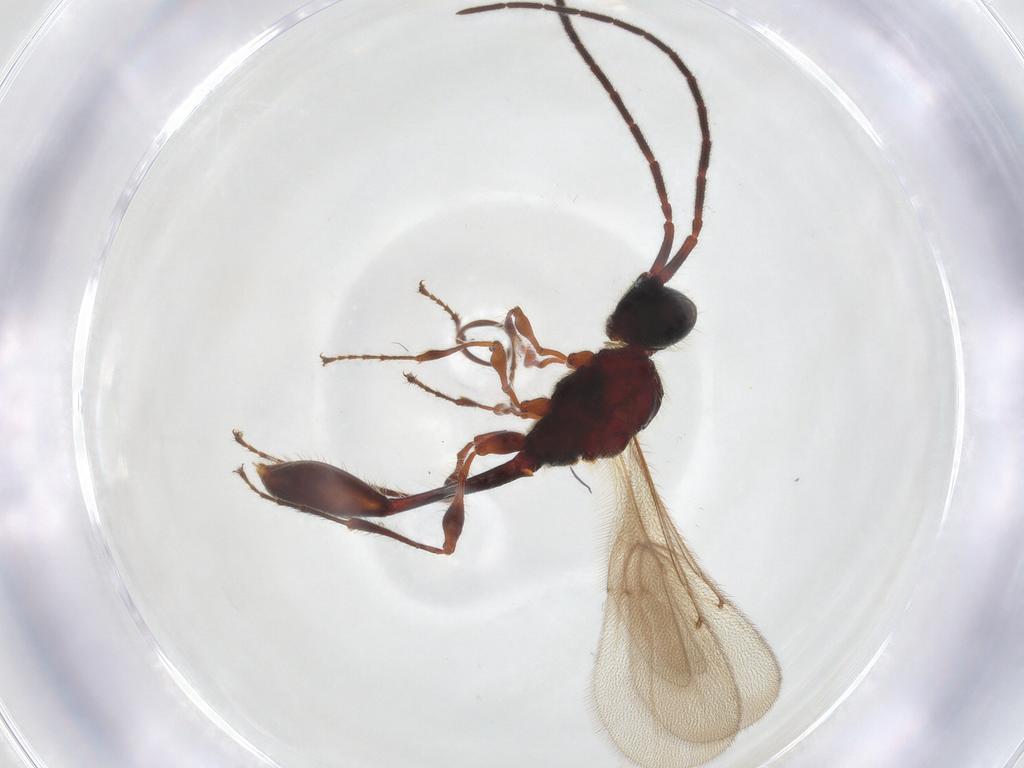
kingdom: Animalia
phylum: Arthropoda
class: Insecta
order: Hymenoptera
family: Diapriidae
